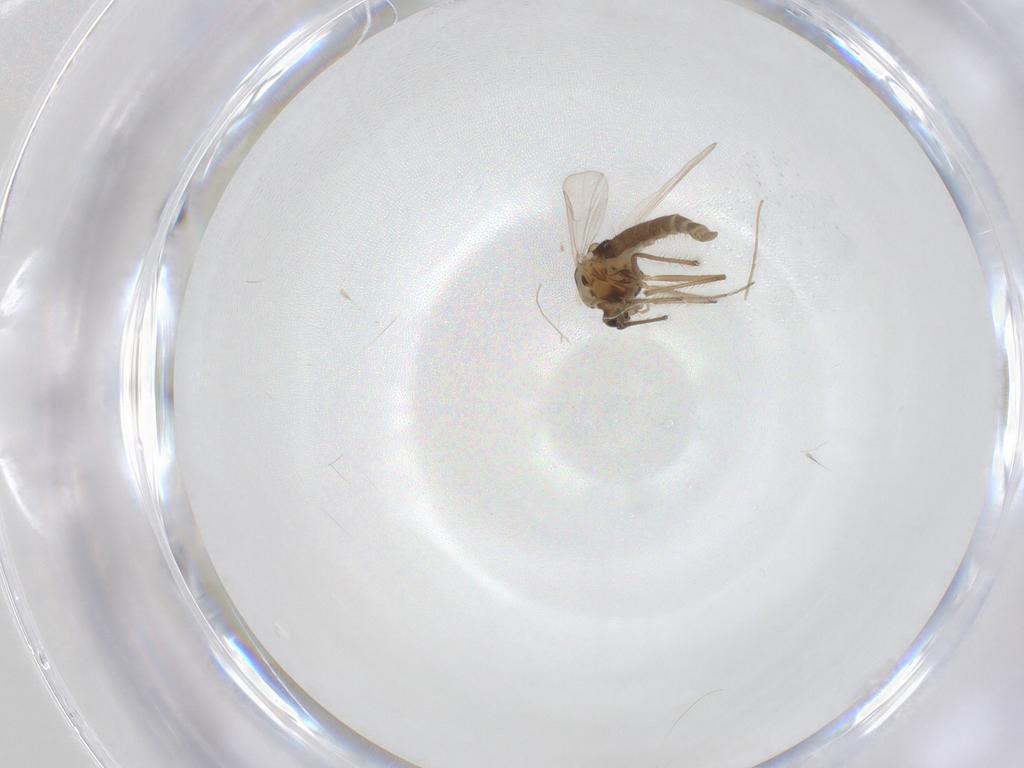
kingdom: Animalia
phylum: Arthropoda
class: Insecta
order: Diptera
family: Chironomidae
